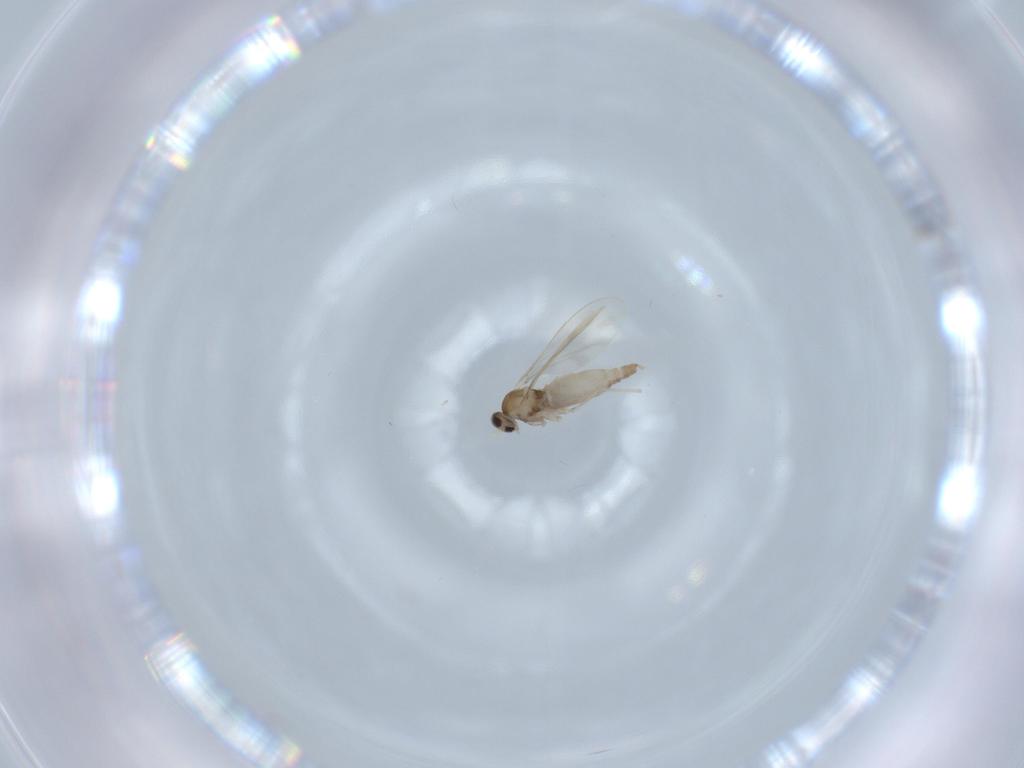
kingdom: Animalia
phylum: Arthropoda
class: Insecta
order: Diptera
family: Cecidomyiidae
